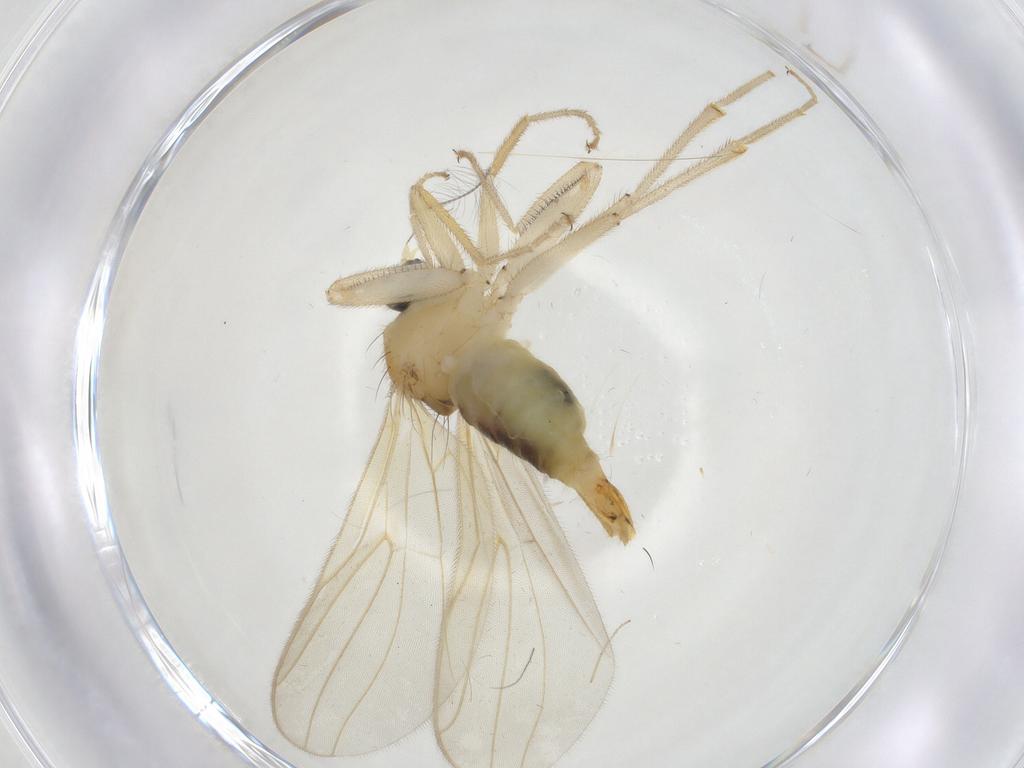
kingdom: Animalia
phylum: Arthropoda
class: Insecta
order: Diptera
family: Hybotidae
